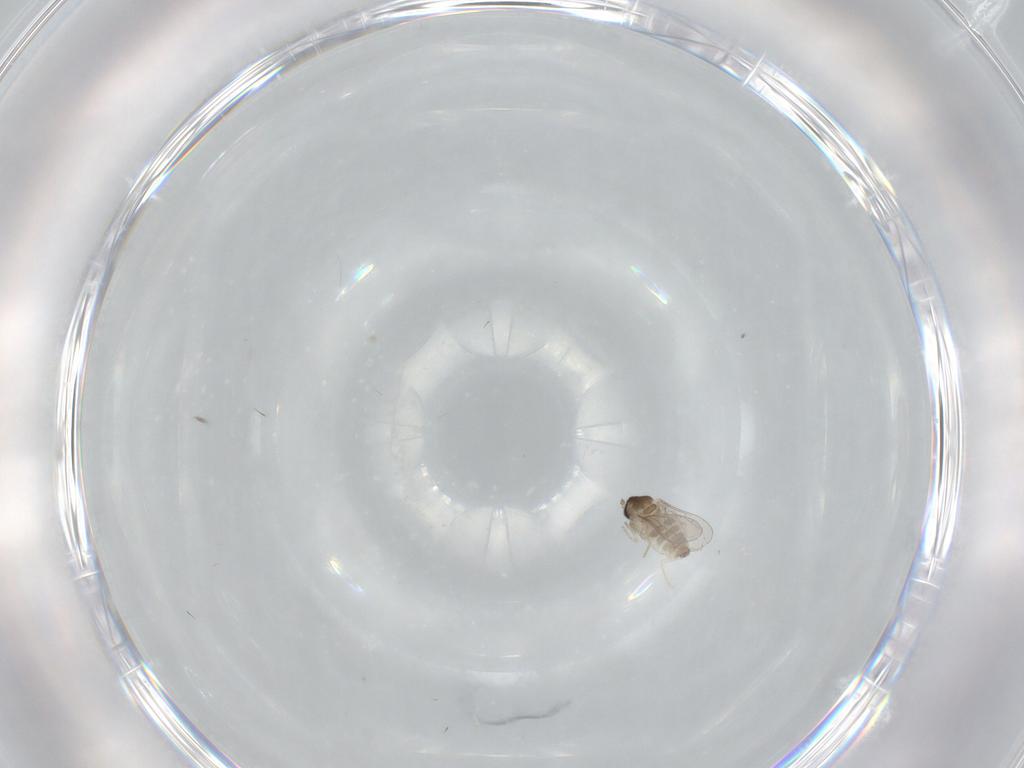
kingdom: Animalia
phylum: Arthropoda
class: Insecta
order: Diptera
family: Cecidomyiidae
